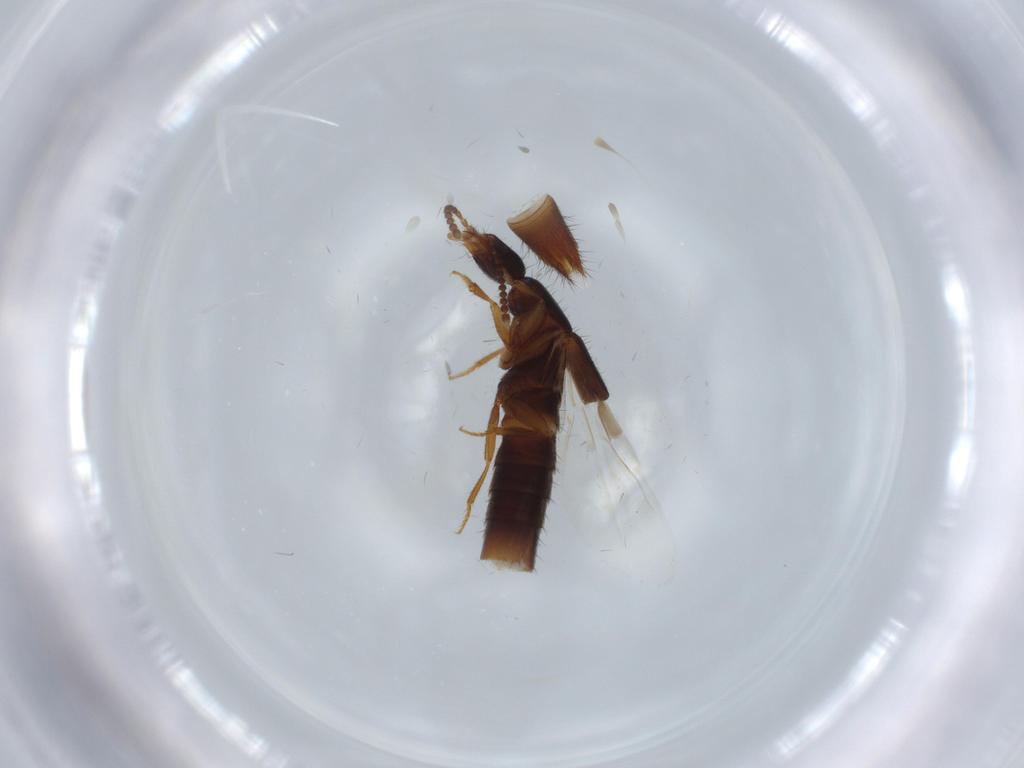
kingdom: Animalia
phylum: Arthropoda
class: Insecta
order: Coleoptera
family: Staphylinidae
